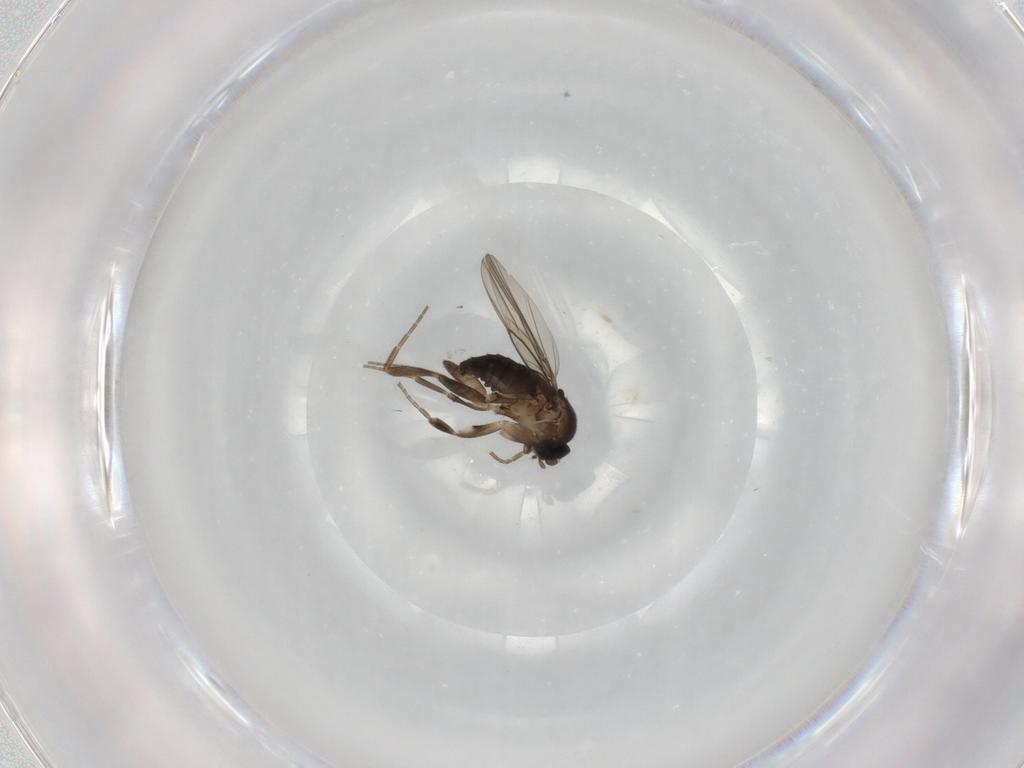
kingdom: Animalia
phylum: Arthropoda
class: Insecta
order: Diptera
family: Phoridae
